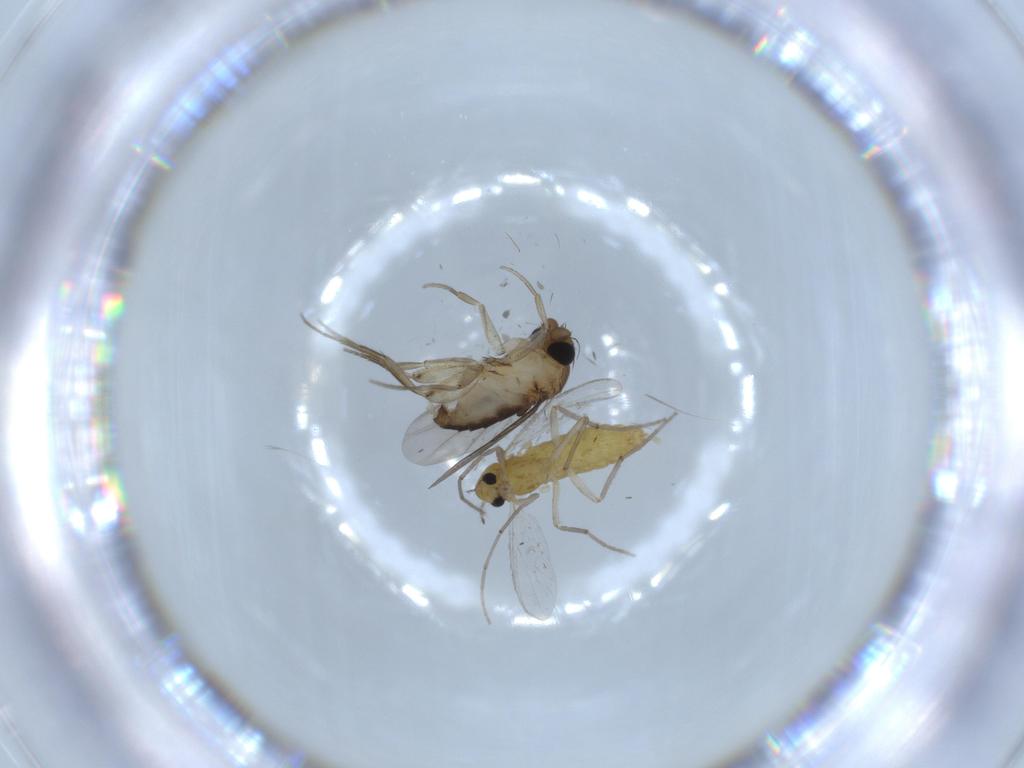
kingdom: Animalia
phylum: Arthropoda
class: Insecta
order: Diptera
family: Chironomidae
